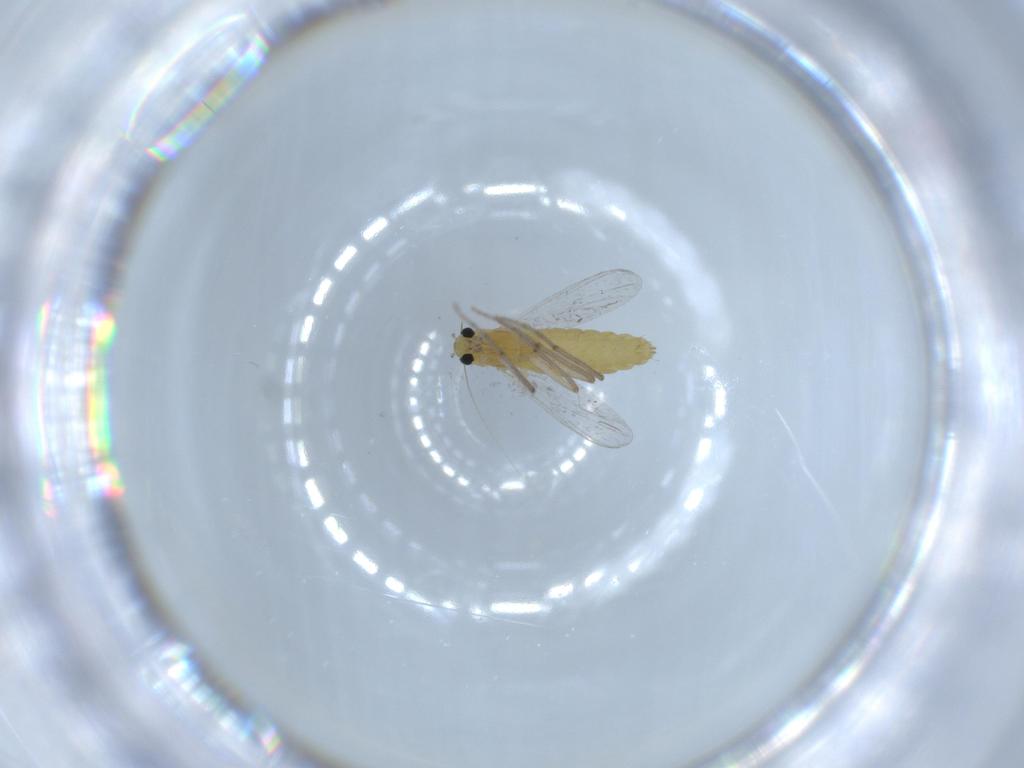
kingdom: Animalia
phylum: Arthropoda
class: Insecta
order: Diptera
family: Chironomidae
